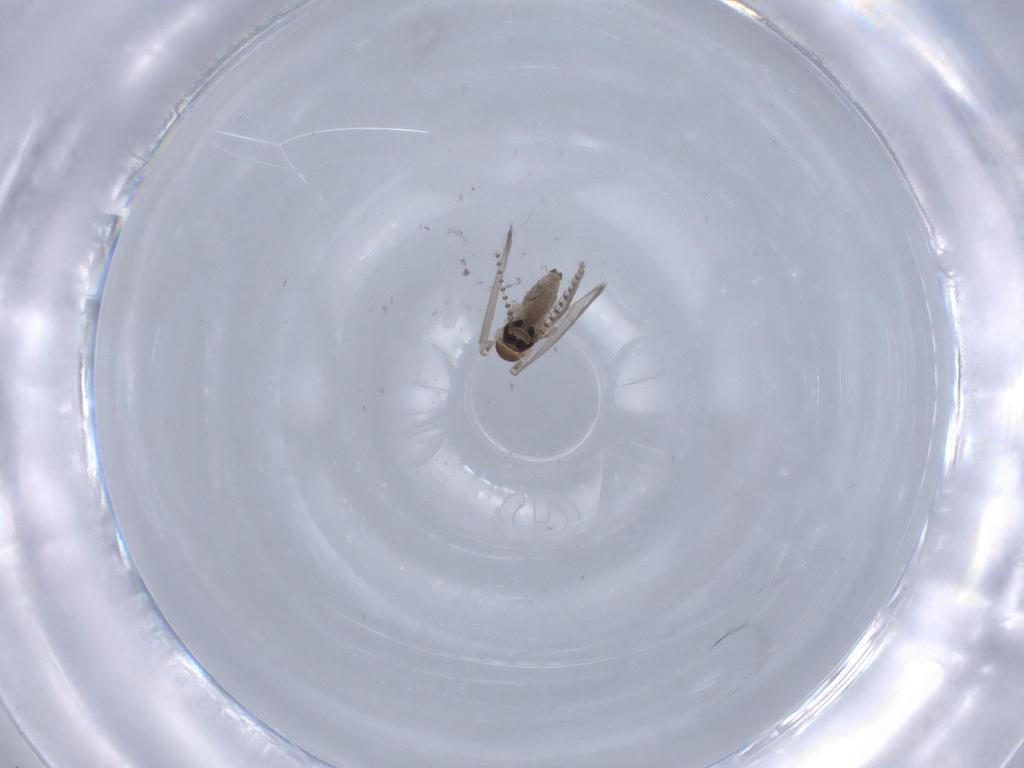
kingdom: Animalia
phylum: Arthropoda
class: Insecta
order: Diptera
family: Psychodidae
